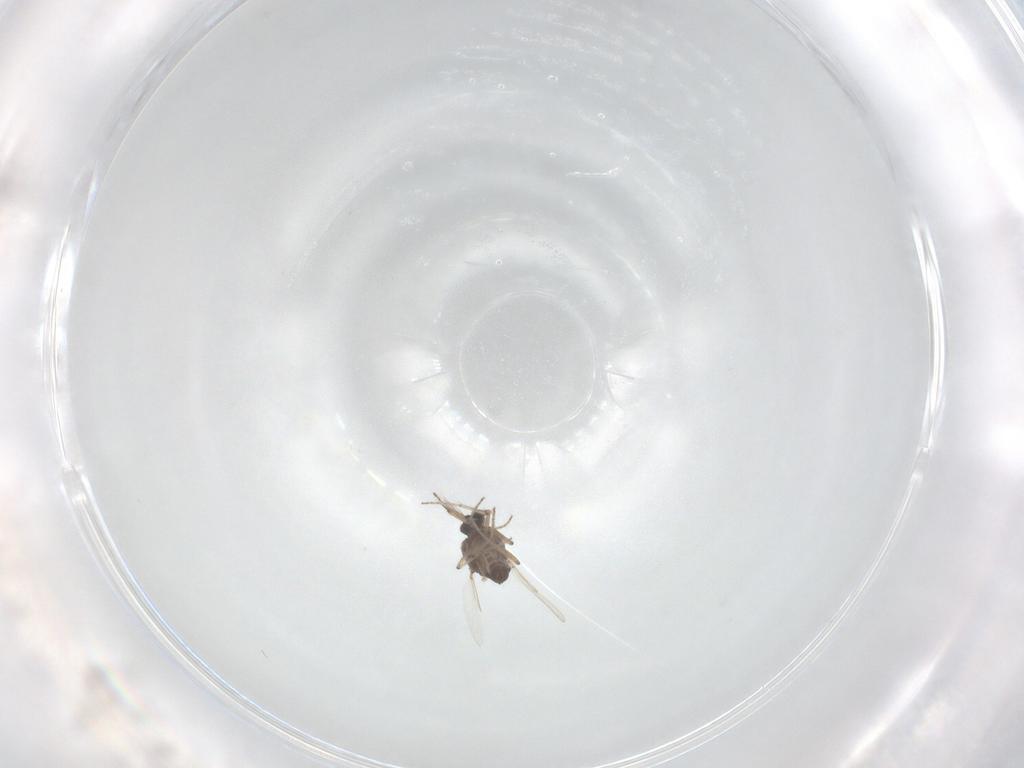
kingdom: Animalia
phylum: Arthropoda
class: Insecta
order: Diptera
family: Ceratopogonidae
